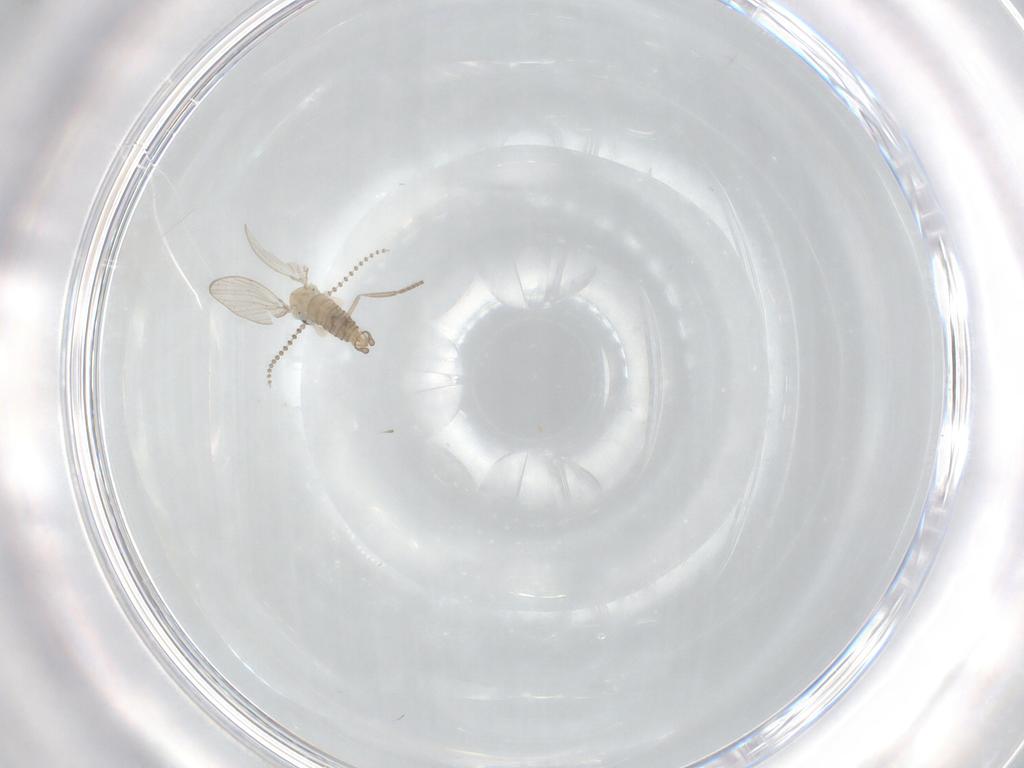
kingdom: Animalia
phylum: Arthropoda
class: Insecta
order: Diptera
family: Psychodidae
